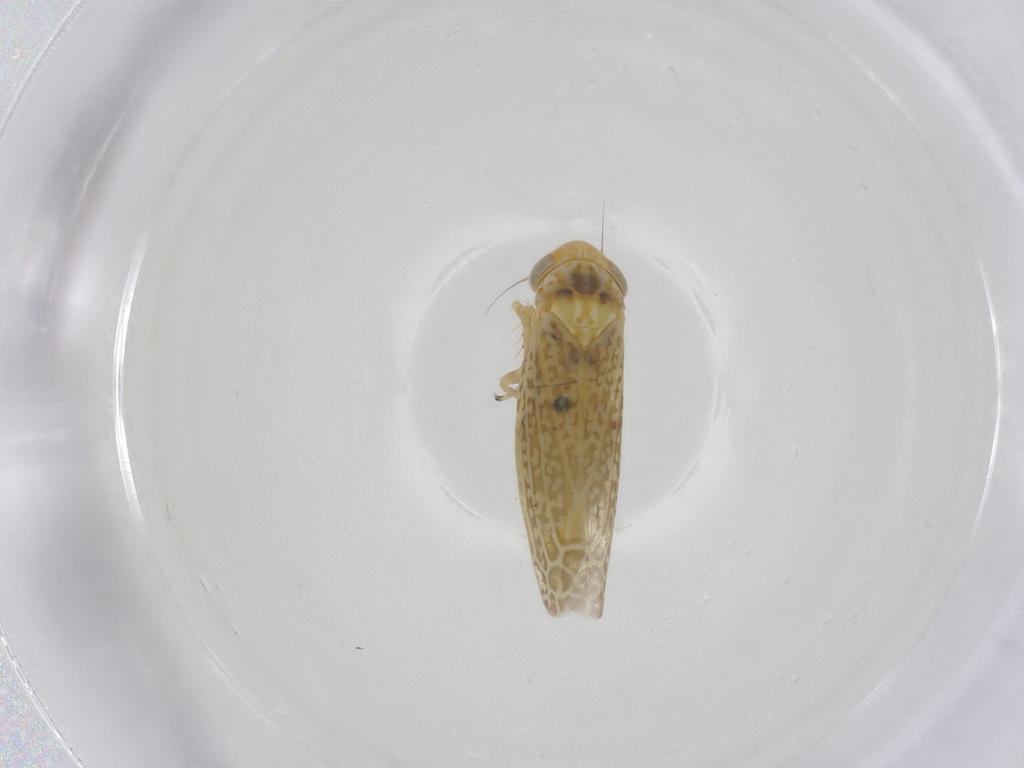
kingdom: Animalia
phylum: Arthropoda
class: Insecta
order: Hemiptera
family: Cicadellidae
